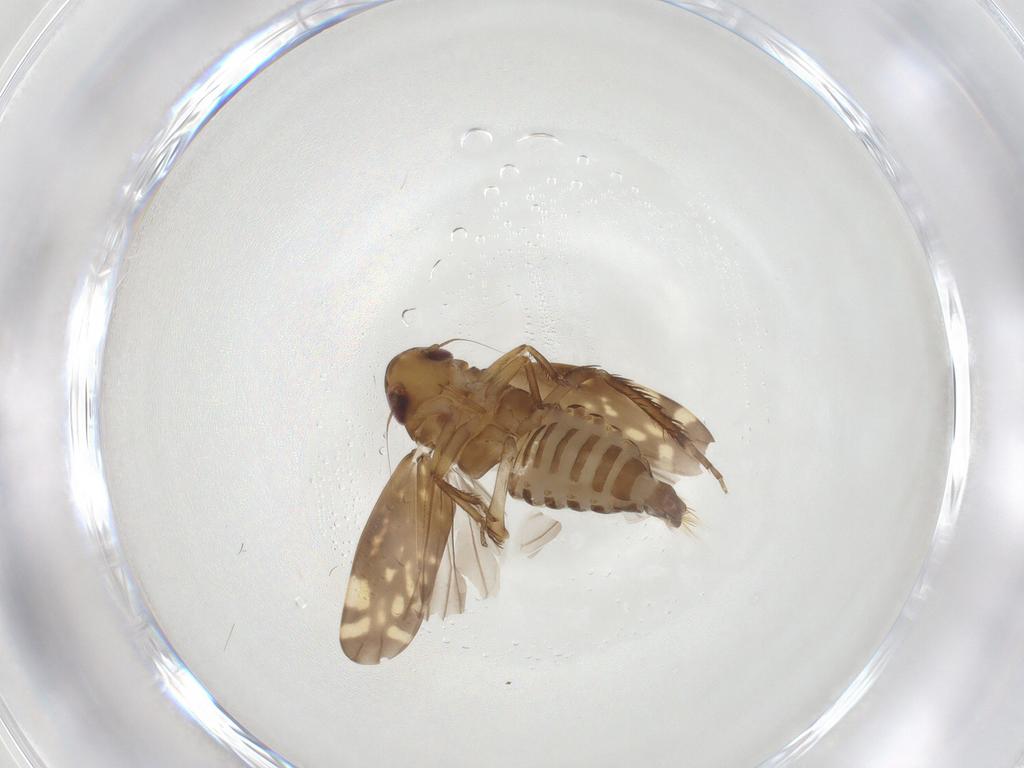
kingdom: Animalia
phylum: Arthropoda
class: Insecta
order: Hemiptera
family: Cicadellidae
